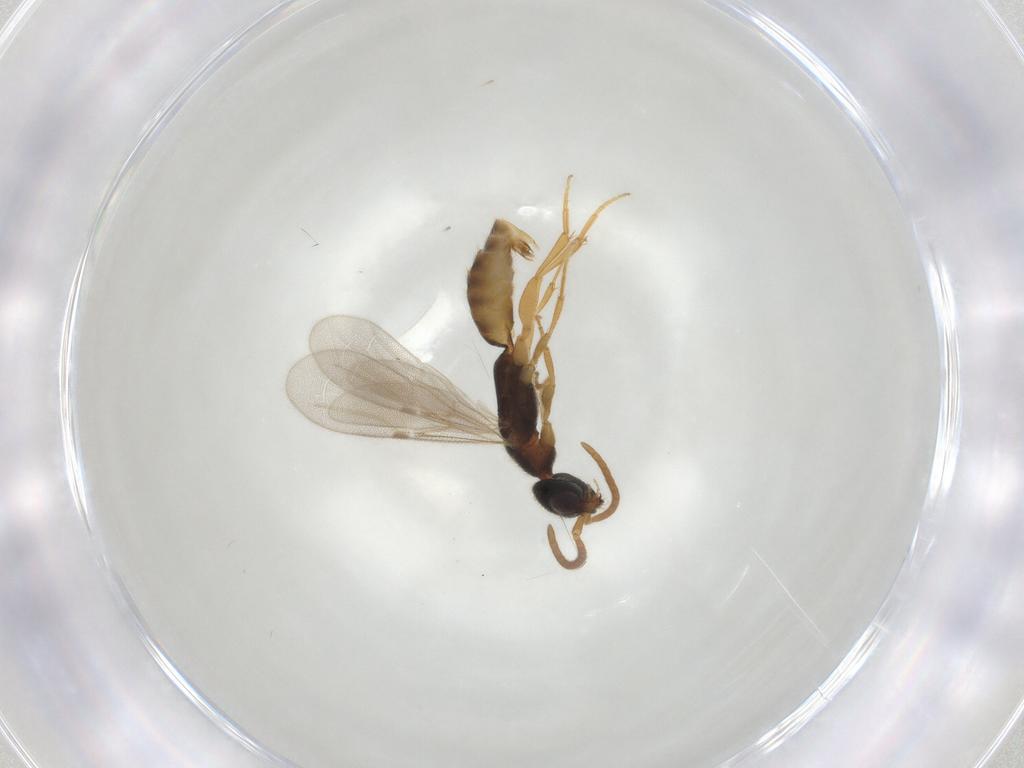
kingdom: Animalia
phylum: Arthropoda
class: Insecta
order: Hymenoptera
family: Bethylidae
